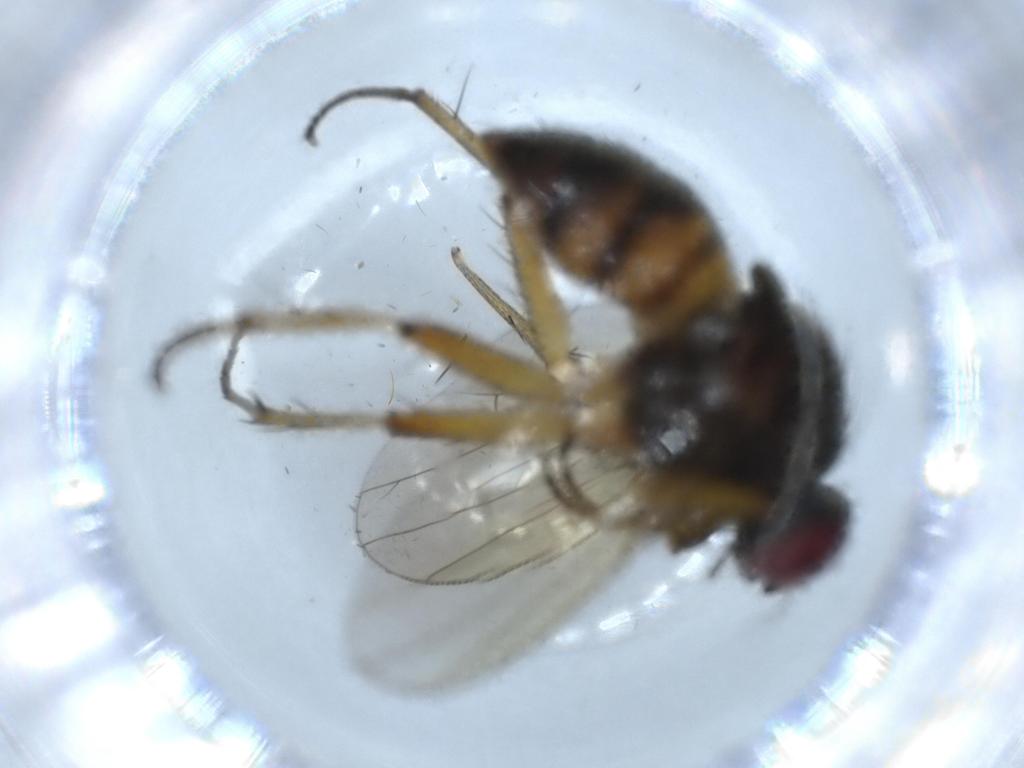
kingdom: Animalia
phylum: Arthropoda
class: Insecta
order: Diptera
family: Muscidae
